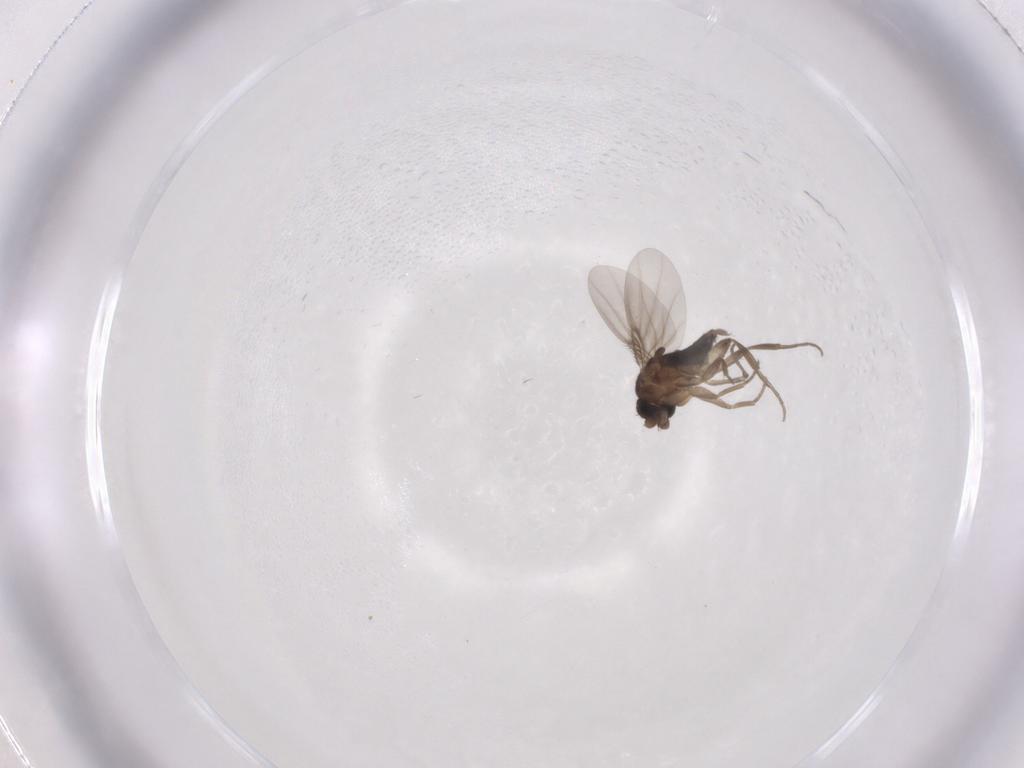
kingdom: Animalia
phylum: Arthropoda
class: Insecta
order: Diptera
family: Phoridae
